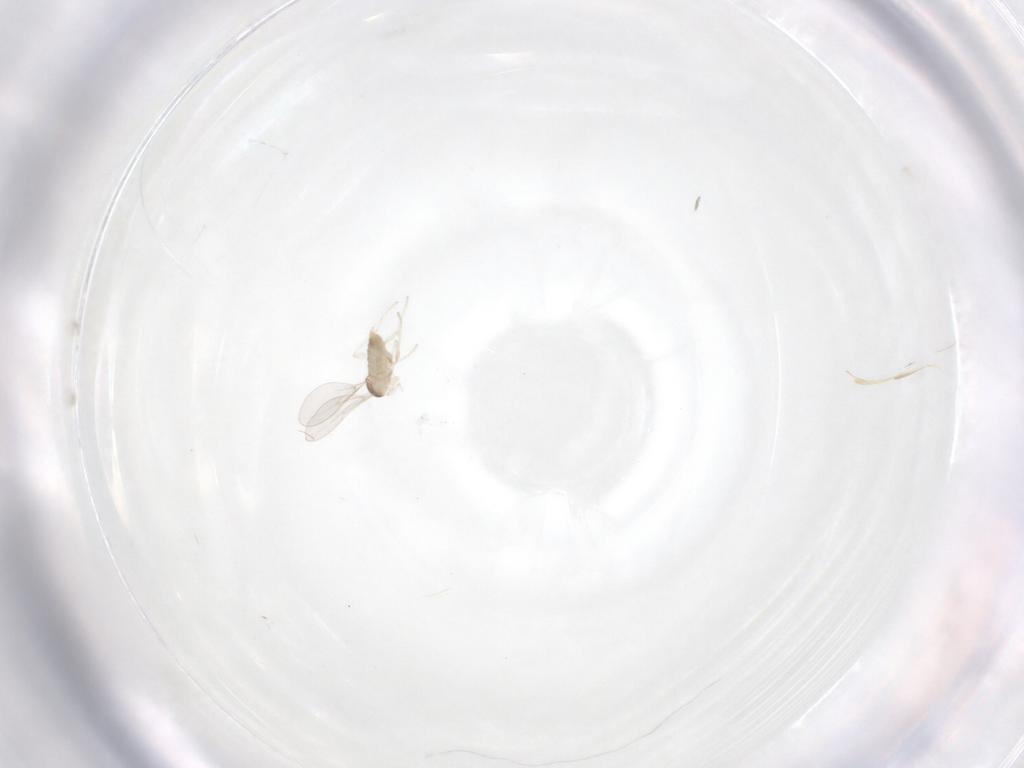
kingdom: Animalia
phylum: Arthropoda
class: Insecta
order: Diptera
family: Cecidomyiidae
